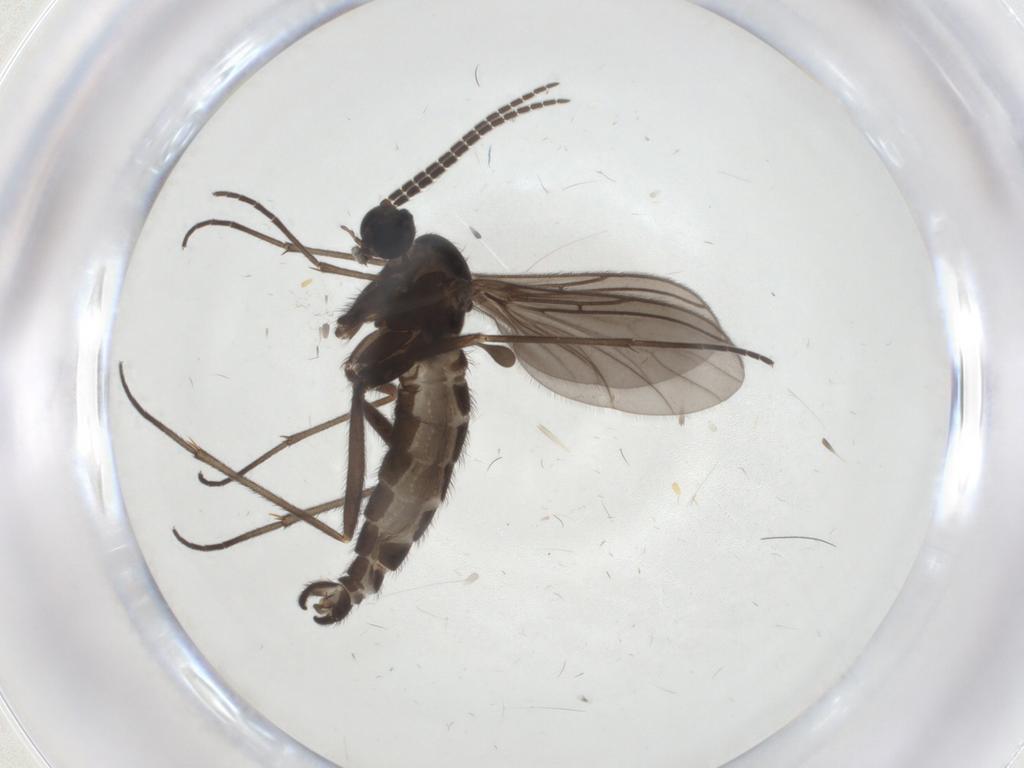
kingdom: Animalia
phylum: Arthropoda
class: Insecta
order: Diptera
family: Sciaridae
